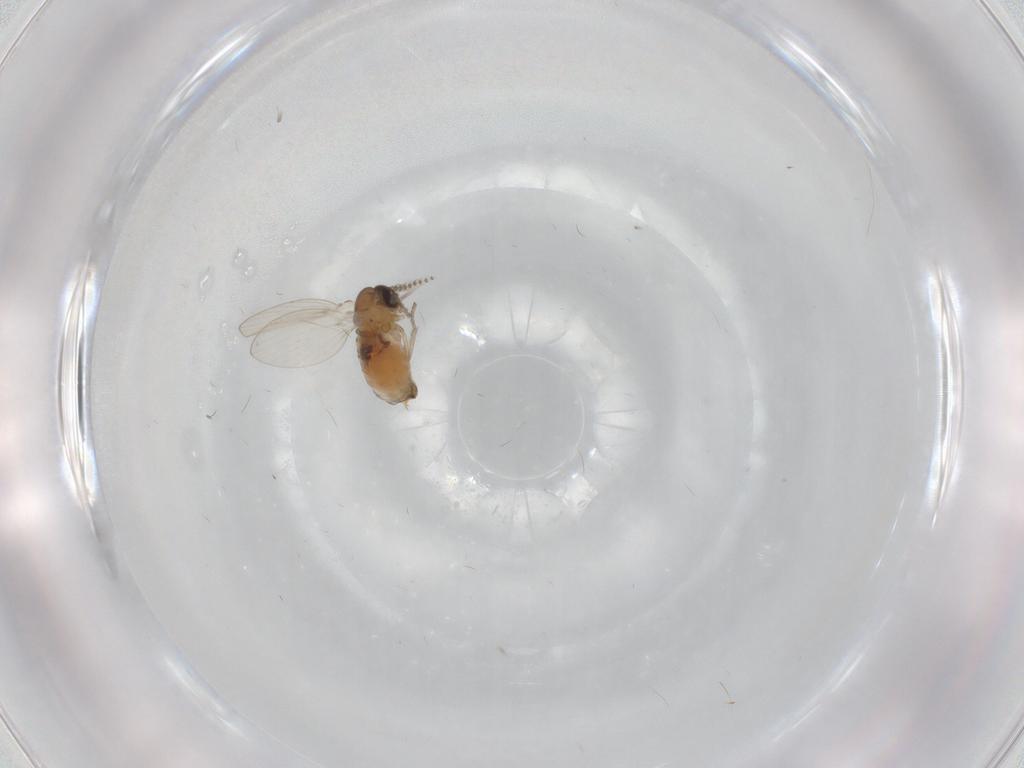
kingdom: Animalia
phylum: Arthropoda
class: Insecta
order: Diptera
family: Psychodidae
